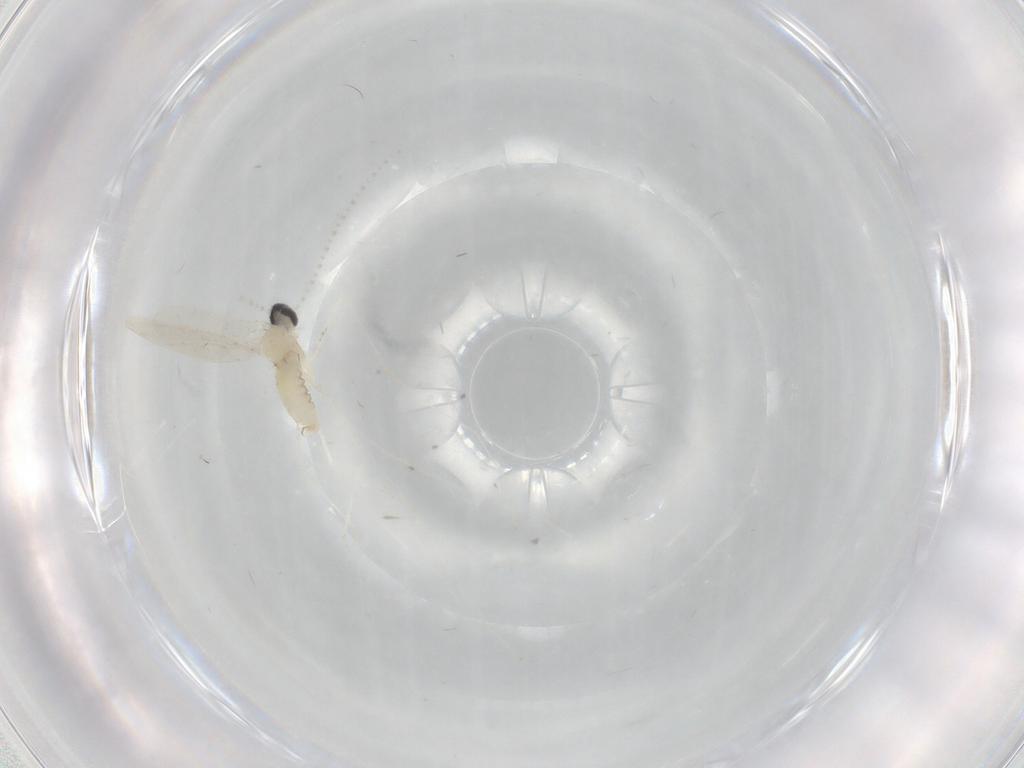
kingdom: Animalia
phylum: Arthropoda
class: Insecta
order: Diptera
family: Cecidomyiidae
